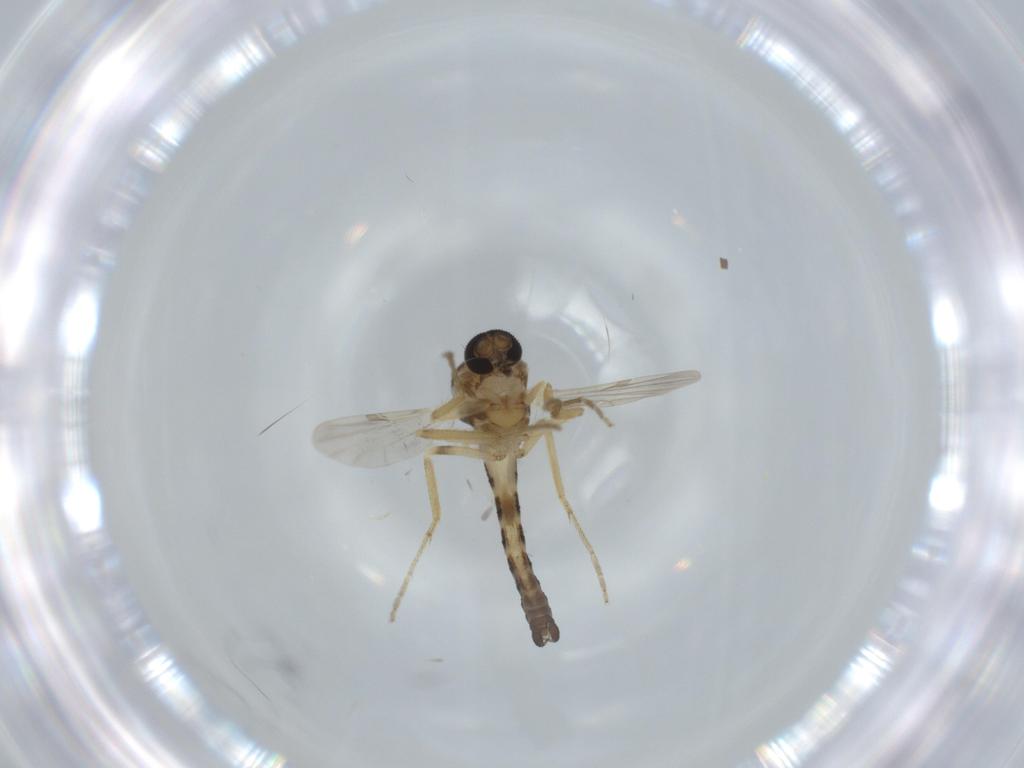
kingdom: Animalia
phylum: Arthropoda
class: Insecta
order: Diptera
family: Ceratopogonidae
